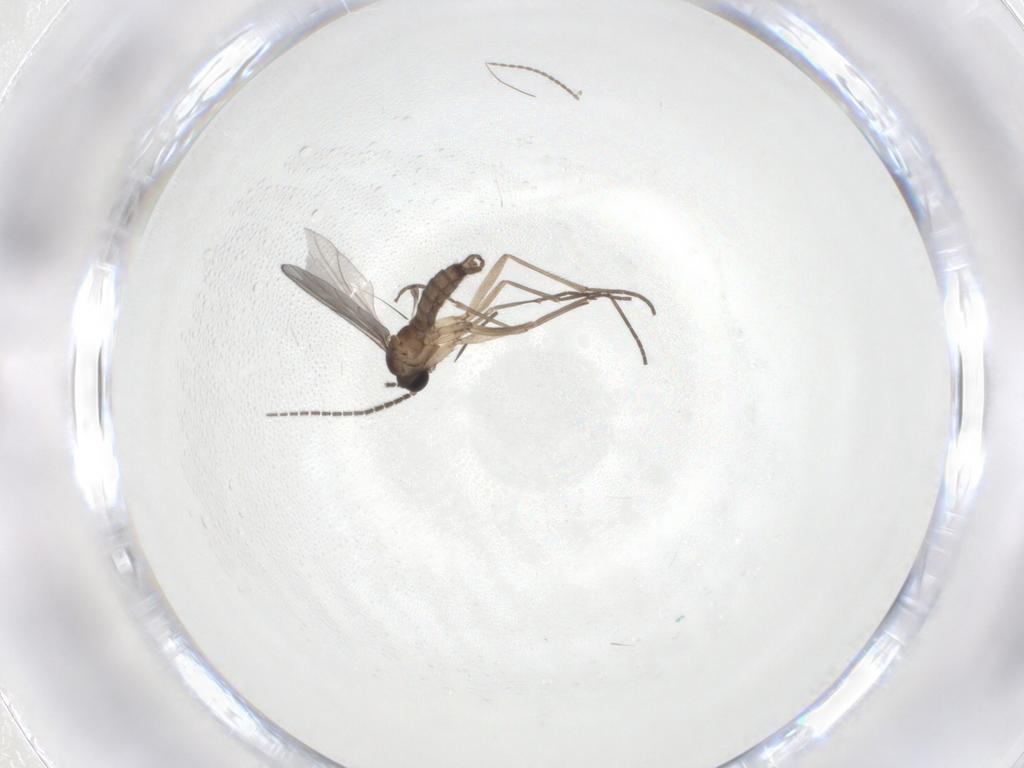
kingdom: Animalia
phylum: Arthropoda
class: Insecta
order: Diptera
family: Sciaridae
